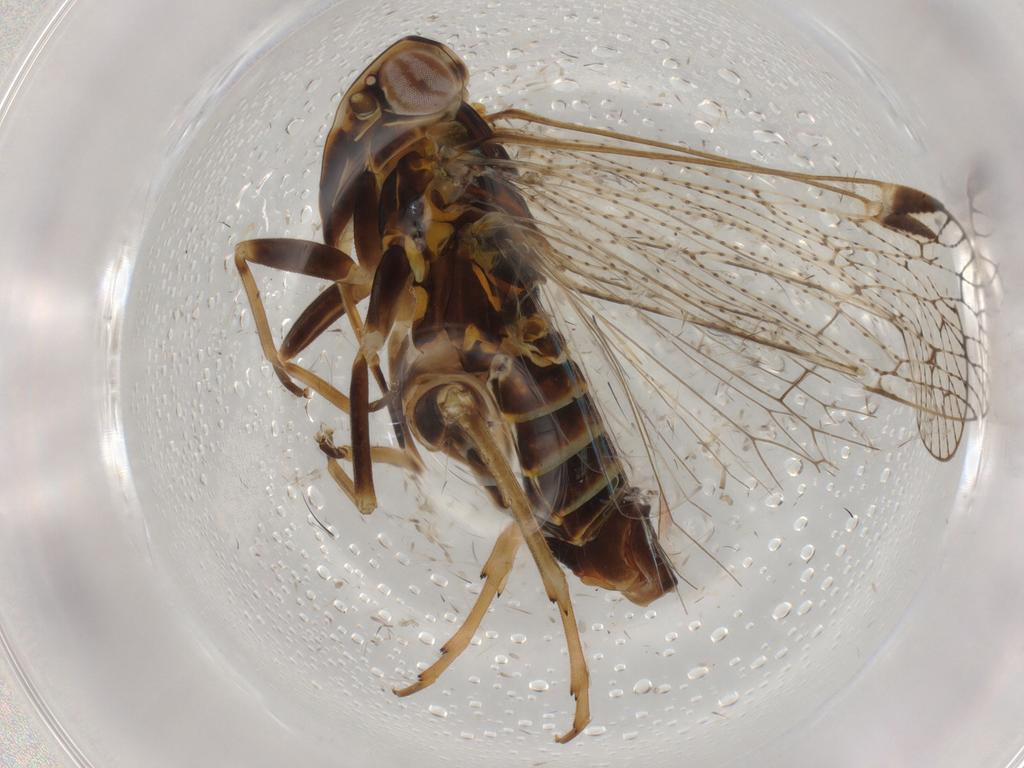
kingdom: Animalia
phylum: Arthropoda
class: Insecta
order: Hemiptera
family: Cixiidae
